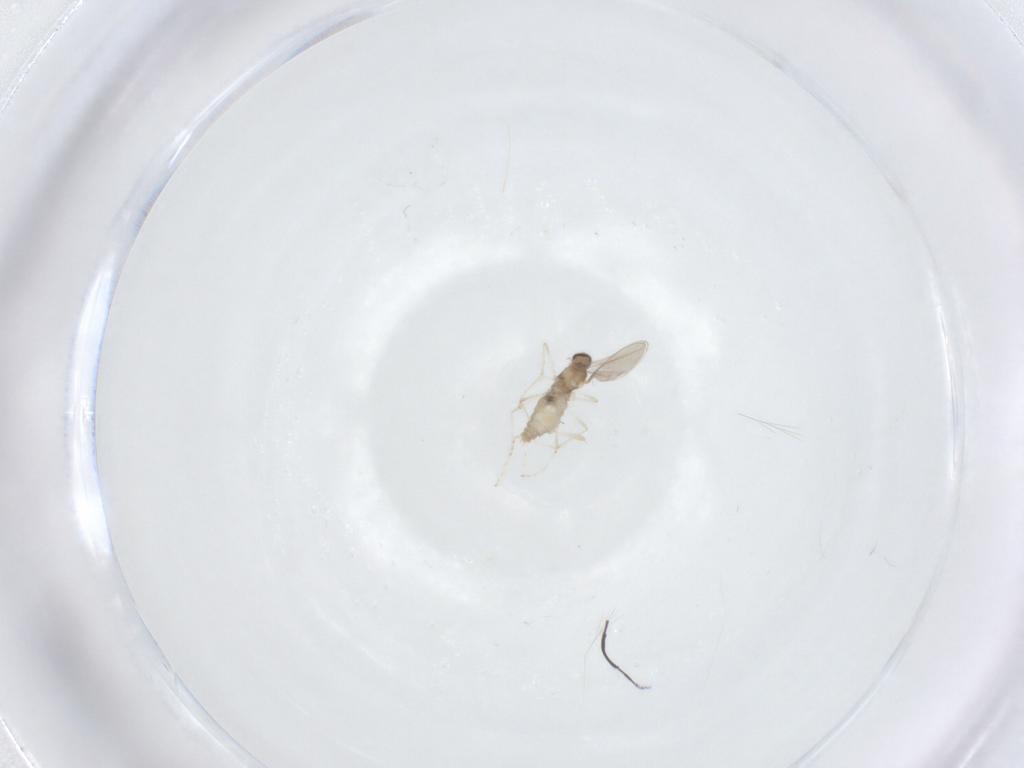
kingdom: Animalia
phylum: Arthropoda
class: Insecta
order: Diptera
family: Cecidomyiidae
